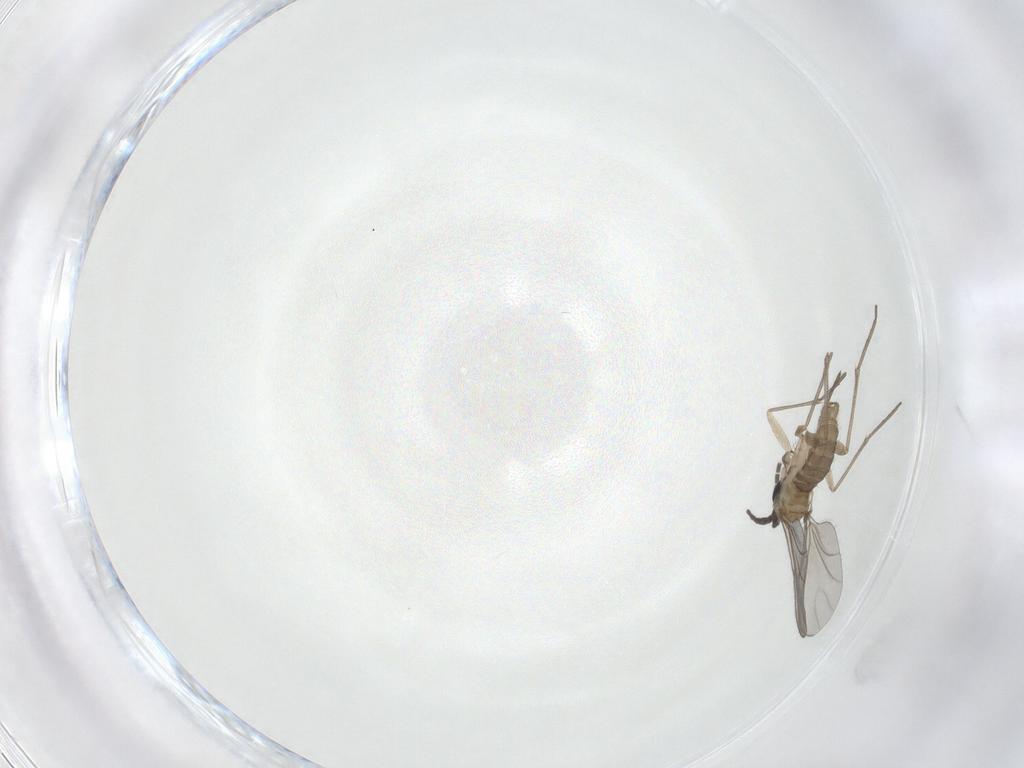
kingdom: Animalia
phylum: Arthropoda
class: Insecta
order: Diptera
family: Sciaridae
